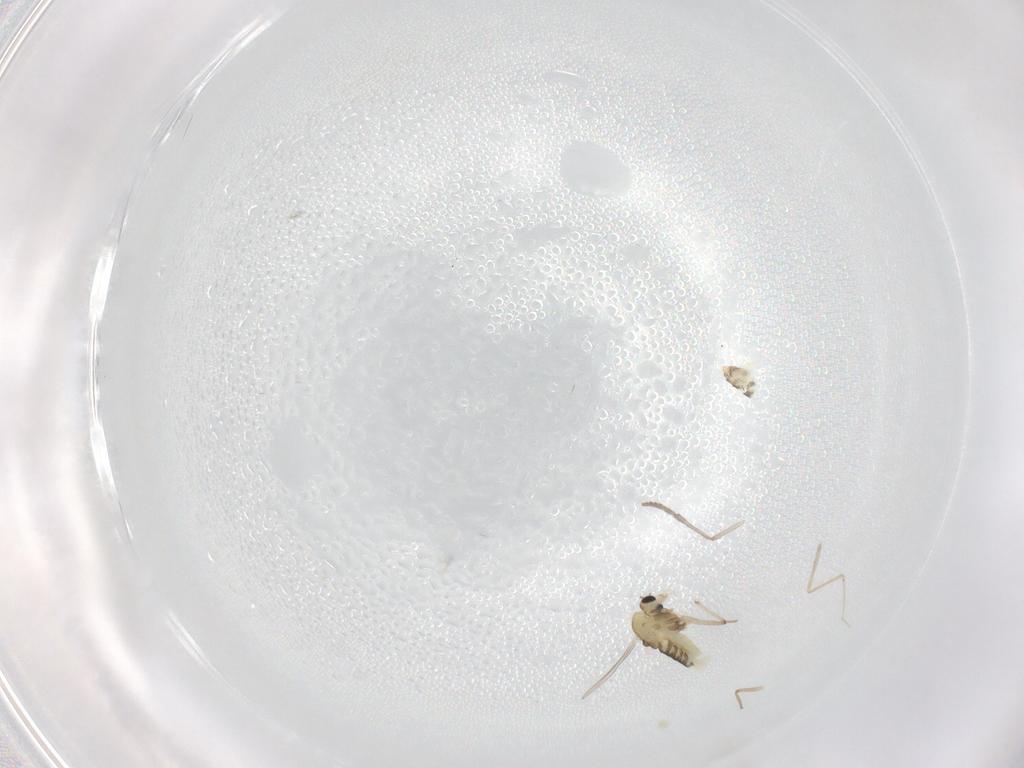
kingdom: Animalia
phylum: Arthropoda
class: Insecta
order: Diptera
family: Chironomidae
